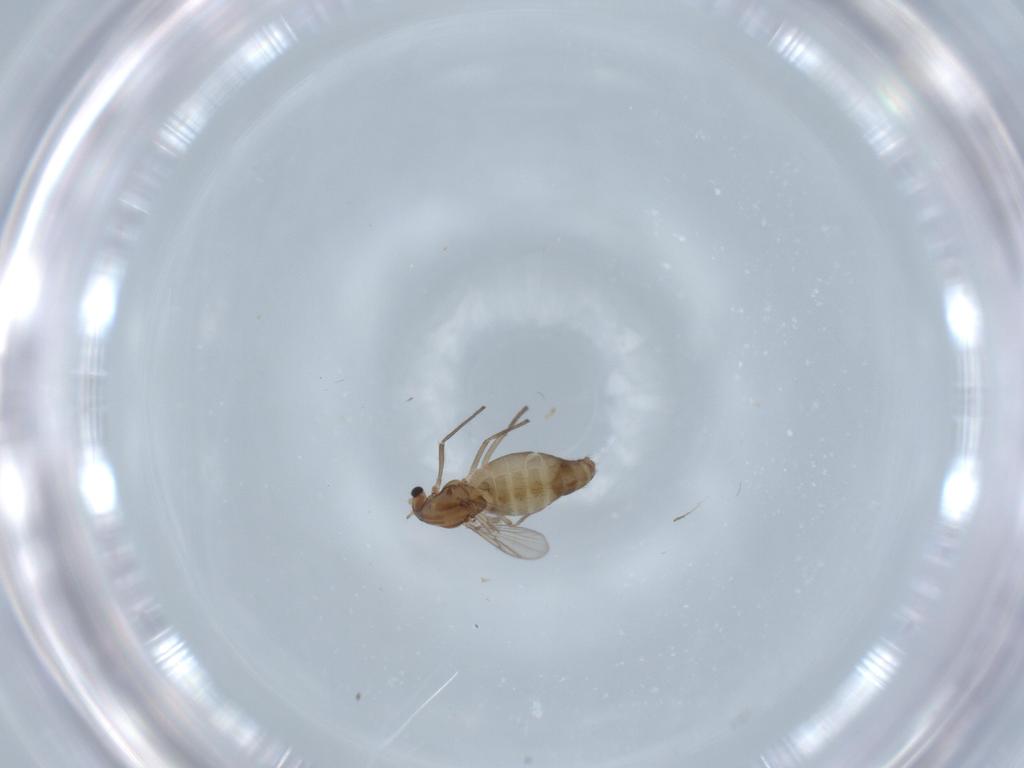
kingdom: Animalia
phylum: Arthropoda
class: Insecta
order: Diptera
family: Chironomidae
